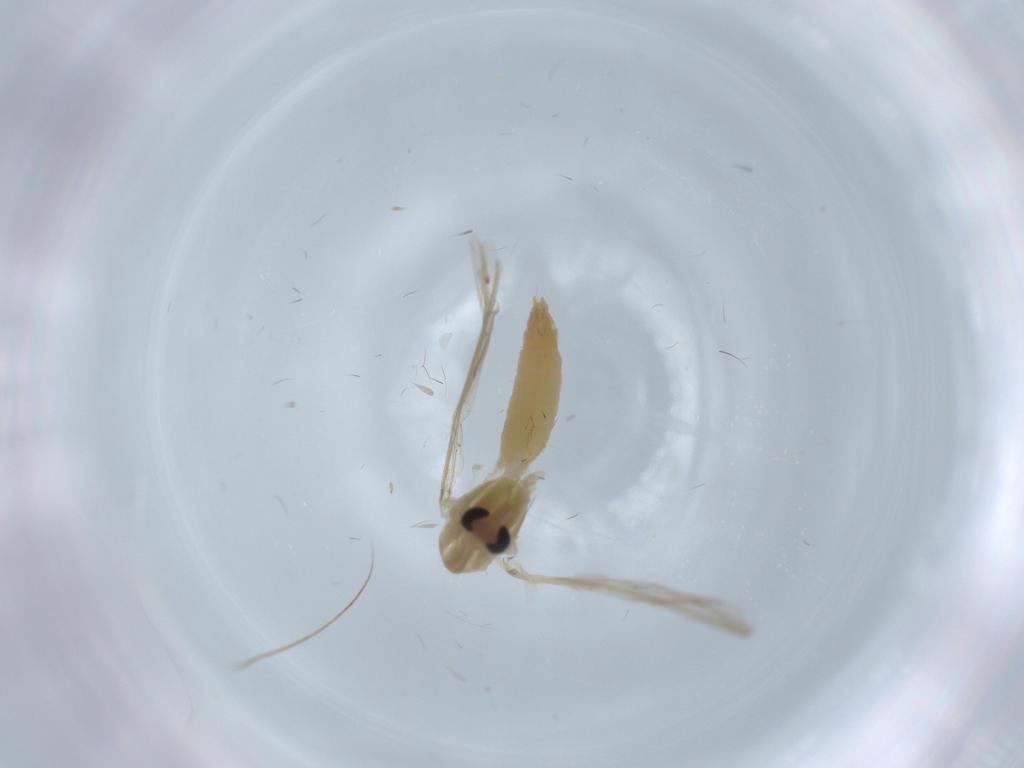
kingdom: Animalia
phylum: Arthropoda
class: Insecta
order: Diptera
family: Chironomidae
